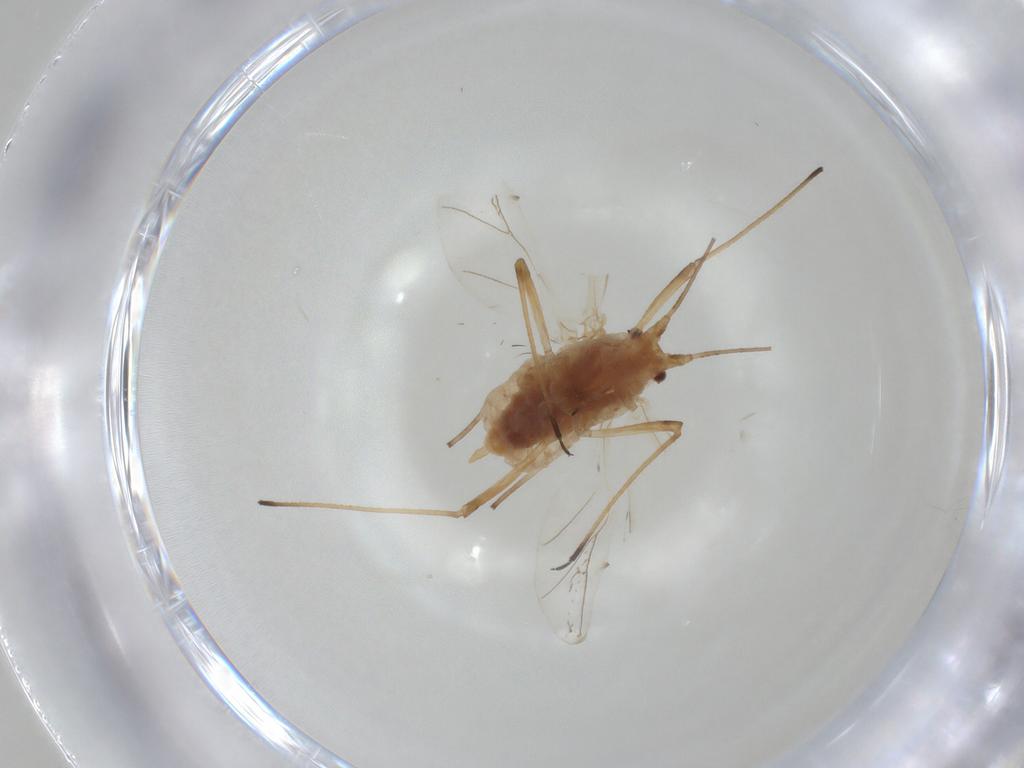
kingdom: Animalia
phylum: Arthropoda
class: Insecta
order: Hemiptera
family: Aphididae
